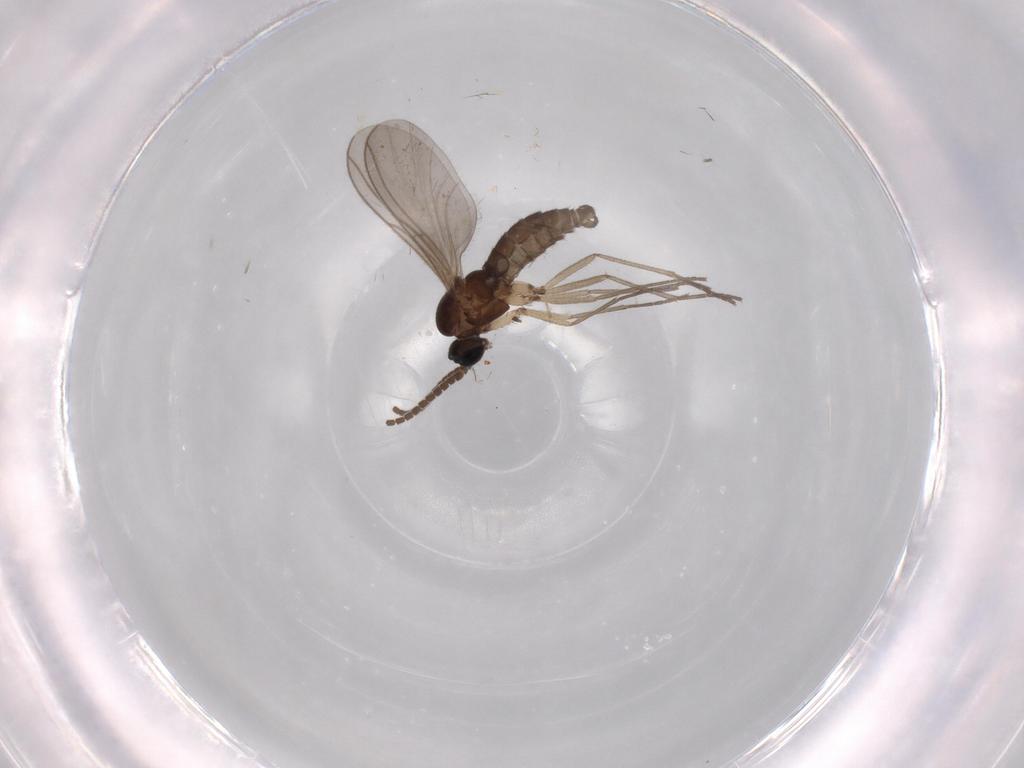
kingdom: Animalia
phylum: Arthropoda
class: Insecta
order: Diptera
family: Sciaridae
